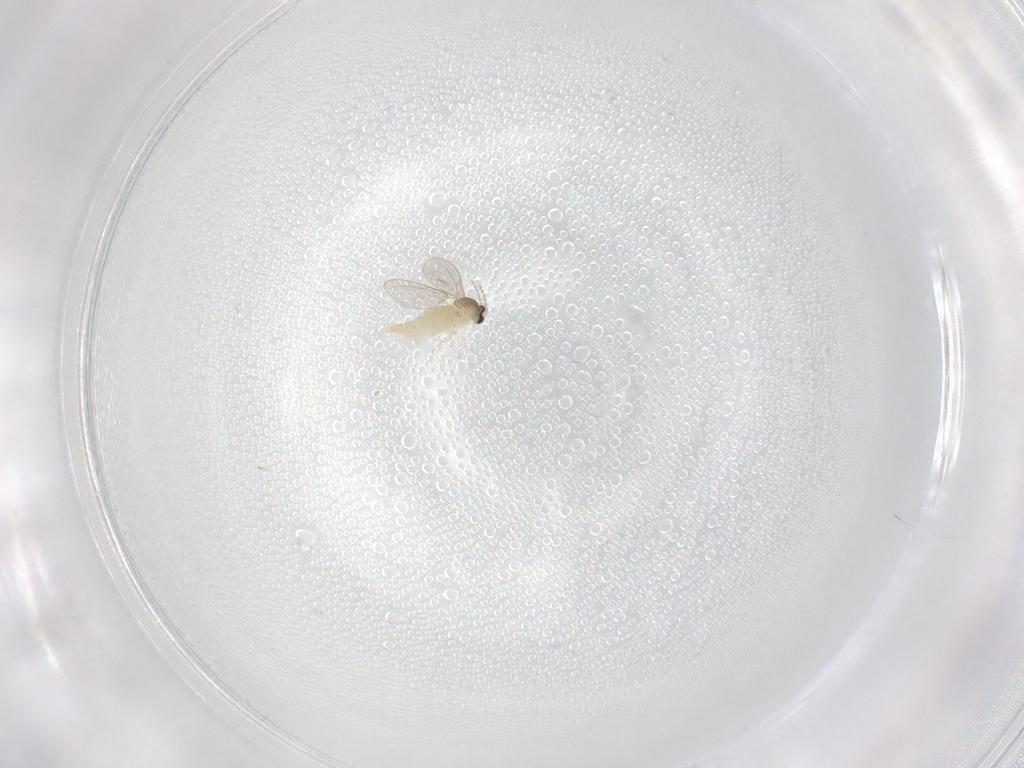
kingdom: Animalia
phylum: Arthropoda
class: Insecta
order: Diptera
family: Cecidomyiidae
